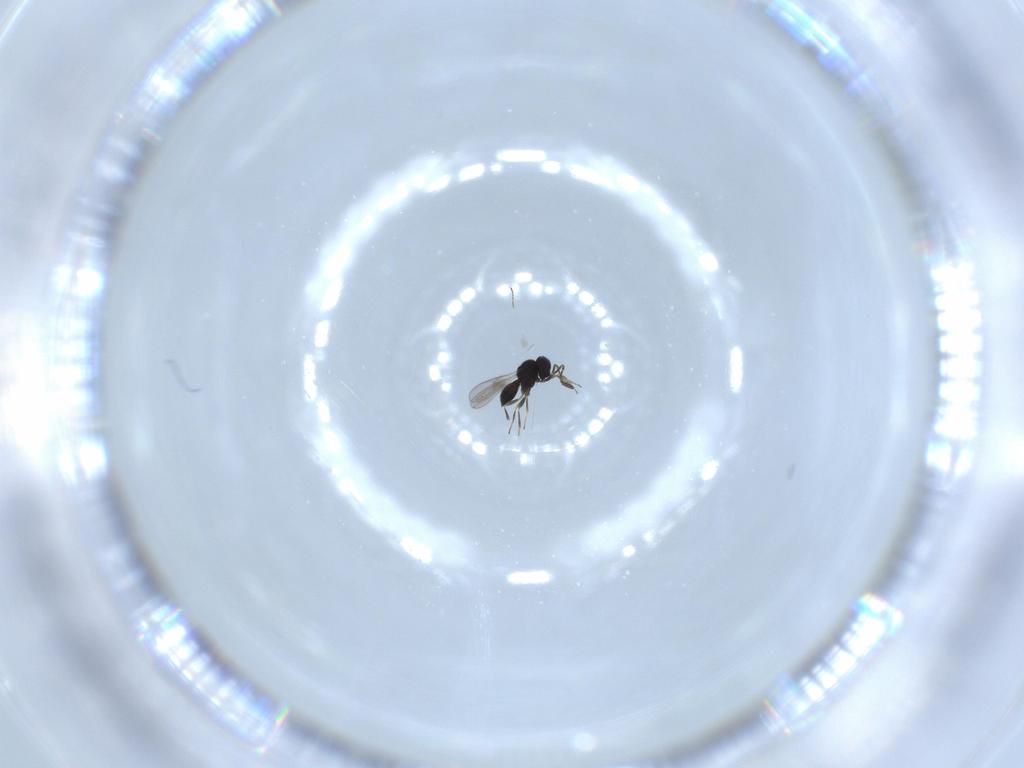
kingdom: Animalia
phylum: Arthropoda
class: Insecta
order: Hymenoptera
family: Scelionidae
